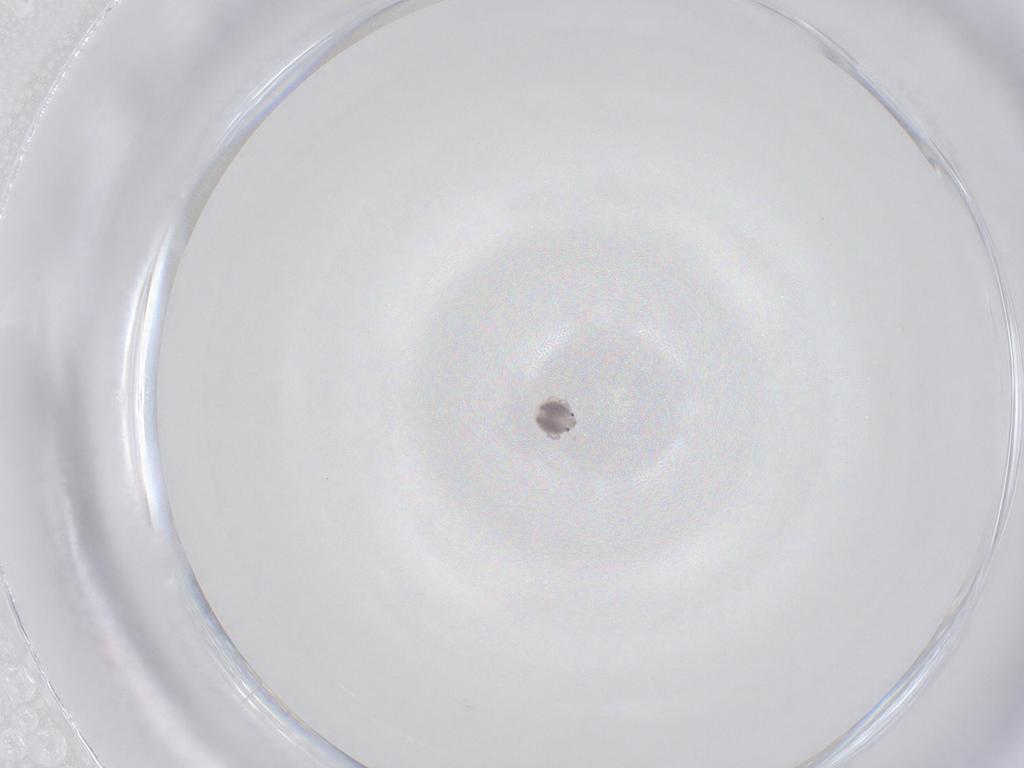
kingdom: Animalia
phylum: Arthropoda
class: Arachnida
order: Trombidiformes
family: Pionidae
